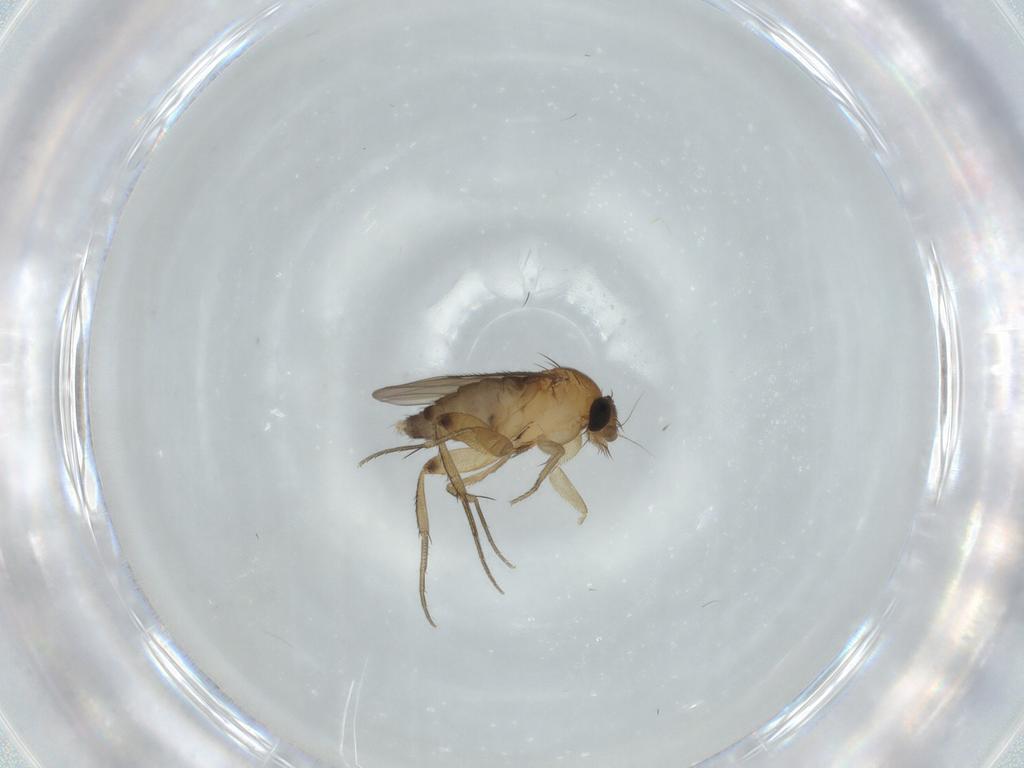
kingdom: Animalia
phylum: Arthropoda
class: Insecta
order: Diptera
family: Phoridae
